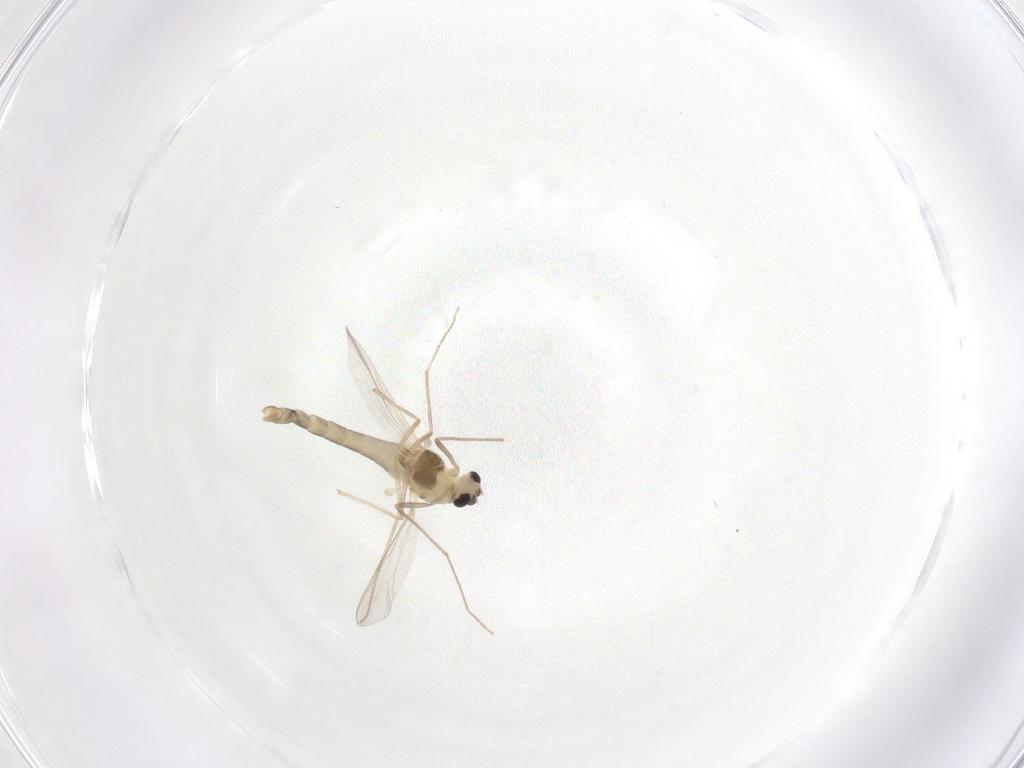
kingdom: Animalia
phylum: Arthropoda
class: Insecta
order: Diptera
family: Chironomidae
